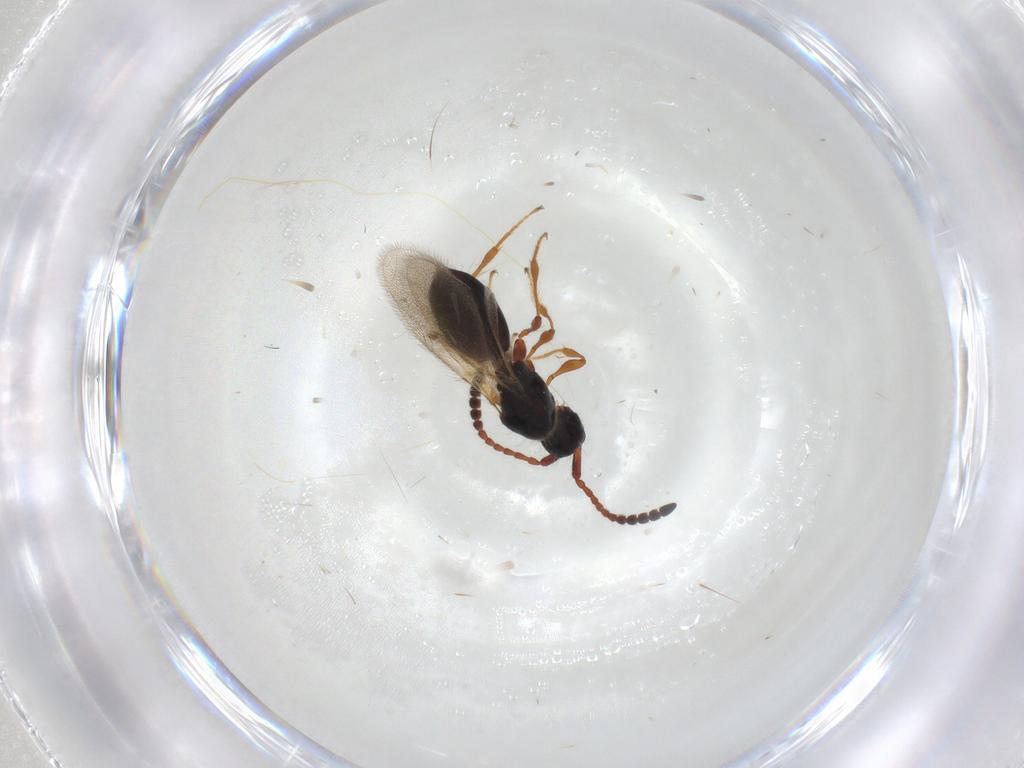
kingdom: Animalia
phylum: Arthropoda
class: Insecta
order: Hymenoptera
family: Diapriidae
